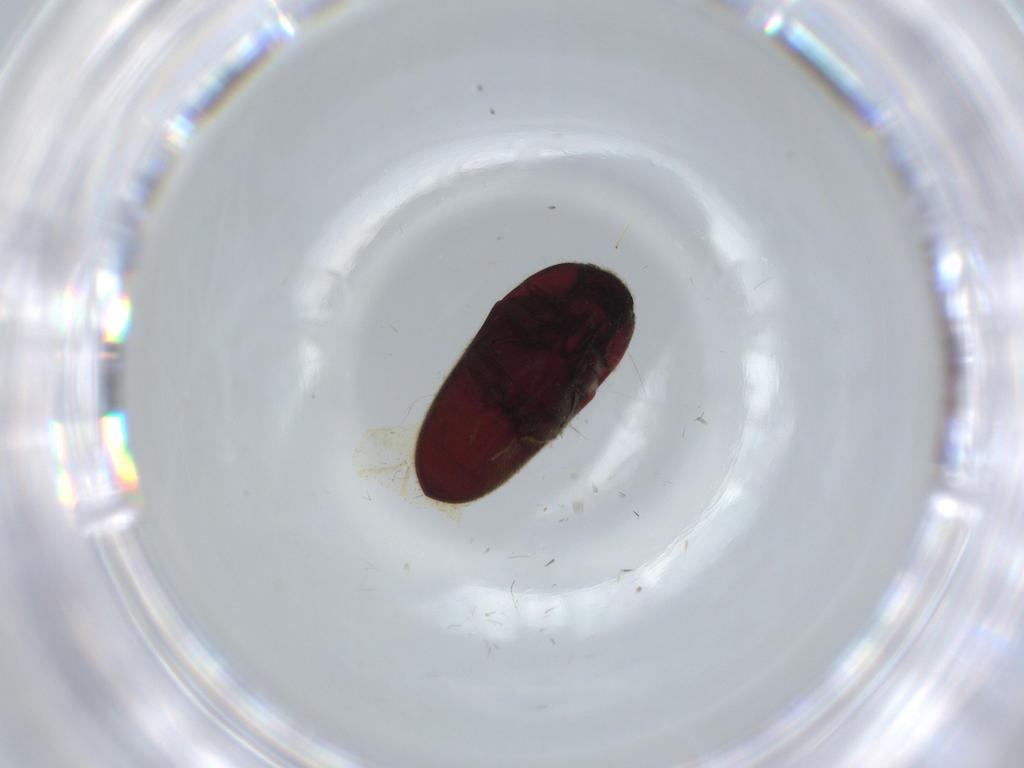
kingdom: Animalia
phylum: Arthropoda
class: Insecta
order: Coleoptera
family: Throscidae
